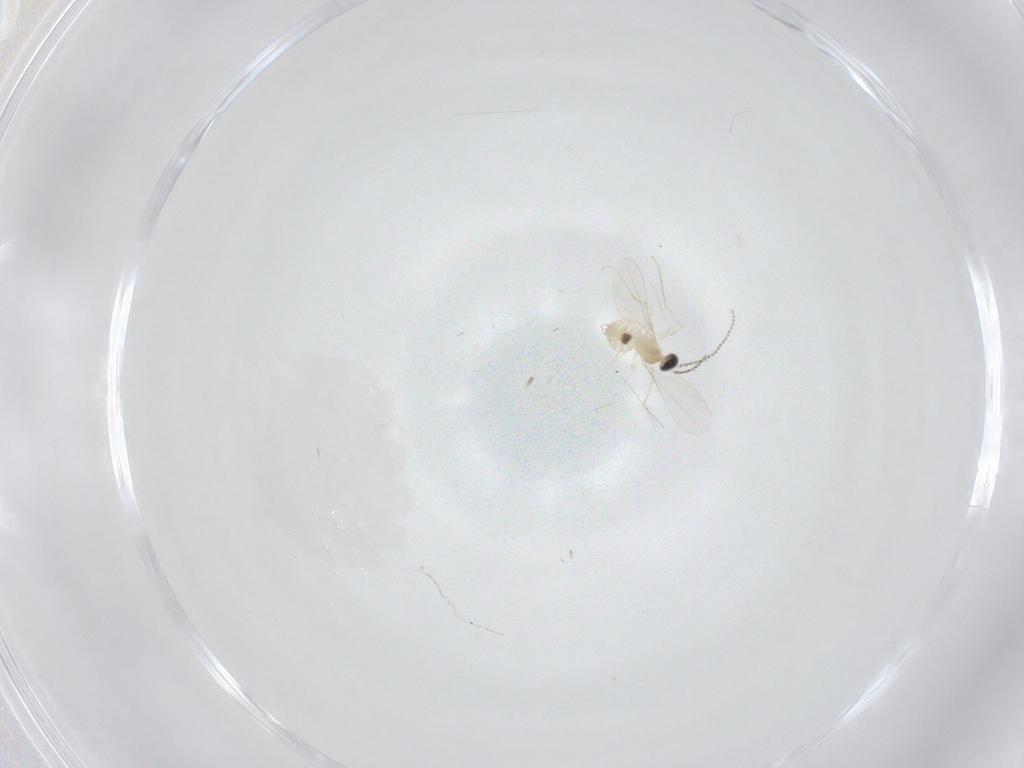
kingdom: Animalia
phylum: Arthropoda
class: Insecta
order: Diptera
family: Cecidomyiidae
